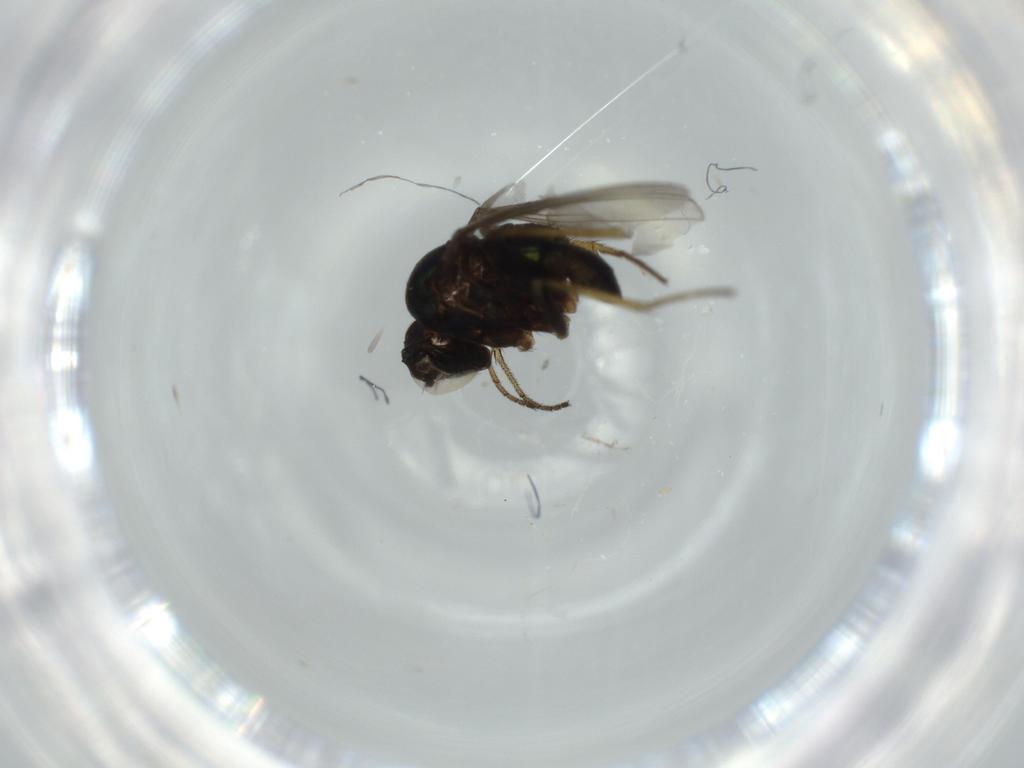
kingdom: Animalia
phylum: Arthropoda
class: Insecta
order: Diptera
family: Dolichopodidae
